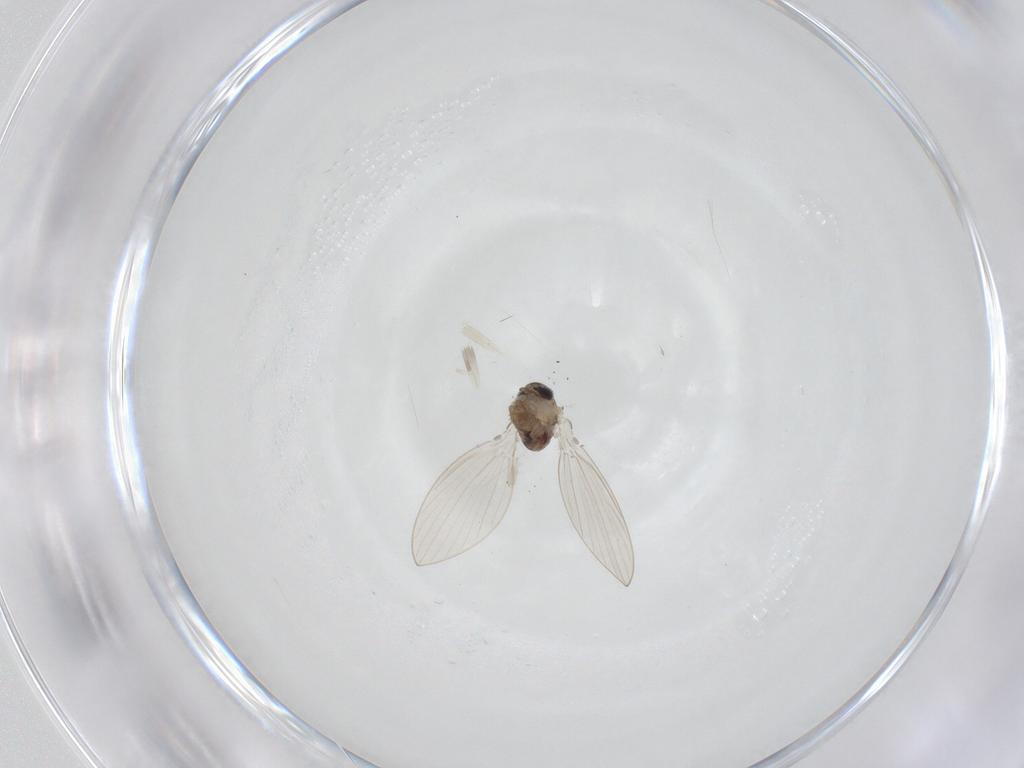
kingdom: Animalia
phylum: Arthropoda
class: Insecta
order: Diptera
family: Psychodidae
